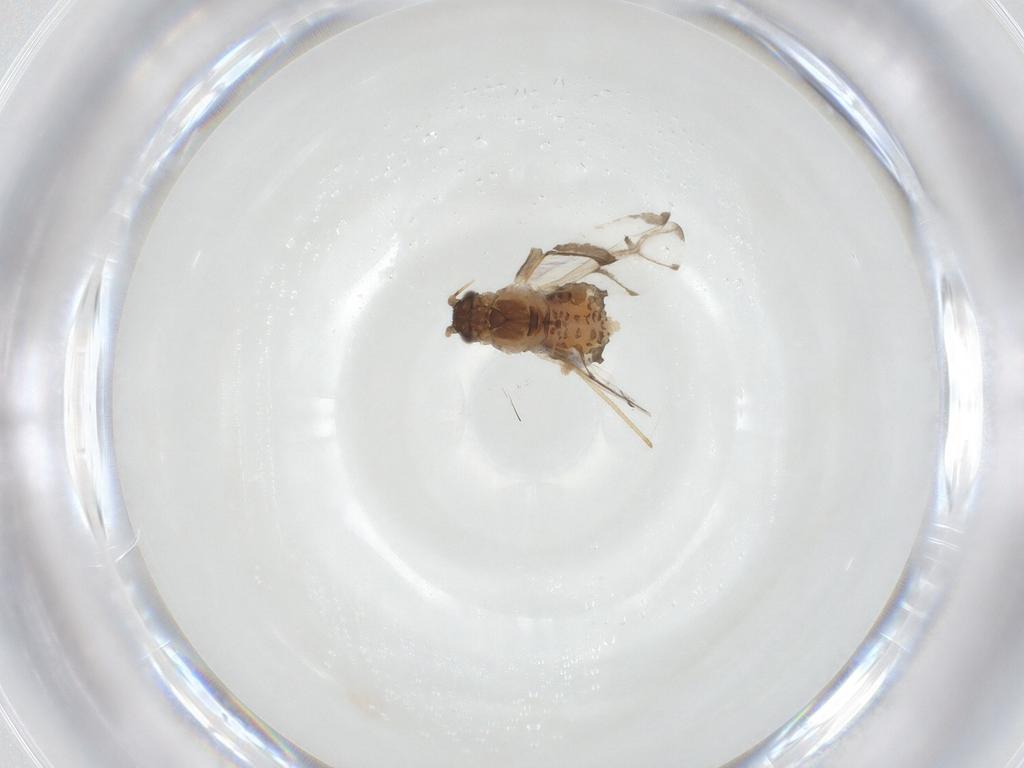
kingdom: Animalia
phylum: Arthropoda
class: Insecta
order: Hemiptera
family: Aphididae
